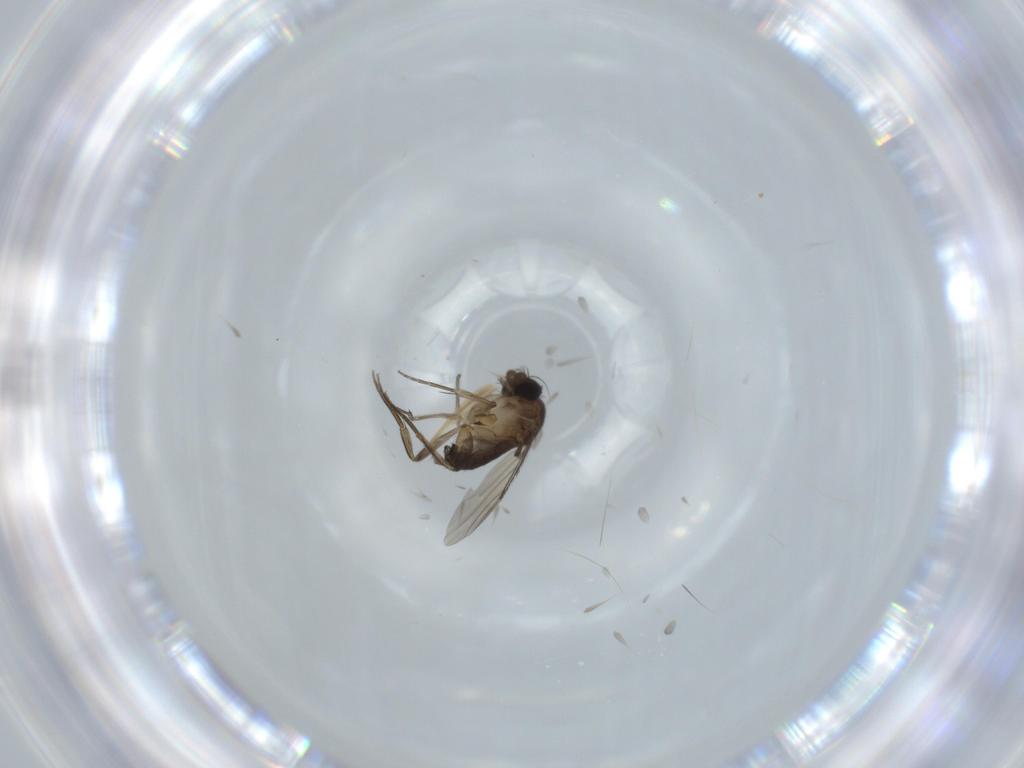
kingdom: Animalia
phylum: Arthropoda
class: Insecta
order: Diptera
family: Phoridae
